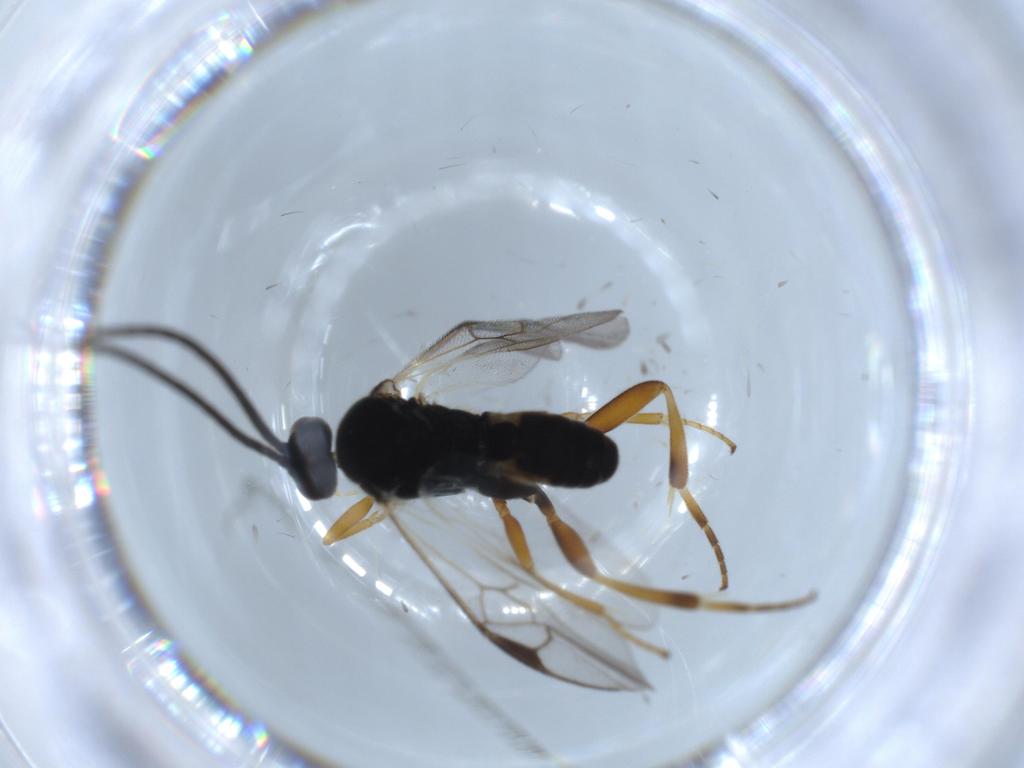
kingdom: Animalia
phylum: Arthropoda
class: Insecta
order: Hymenoptera
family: Braconidae
